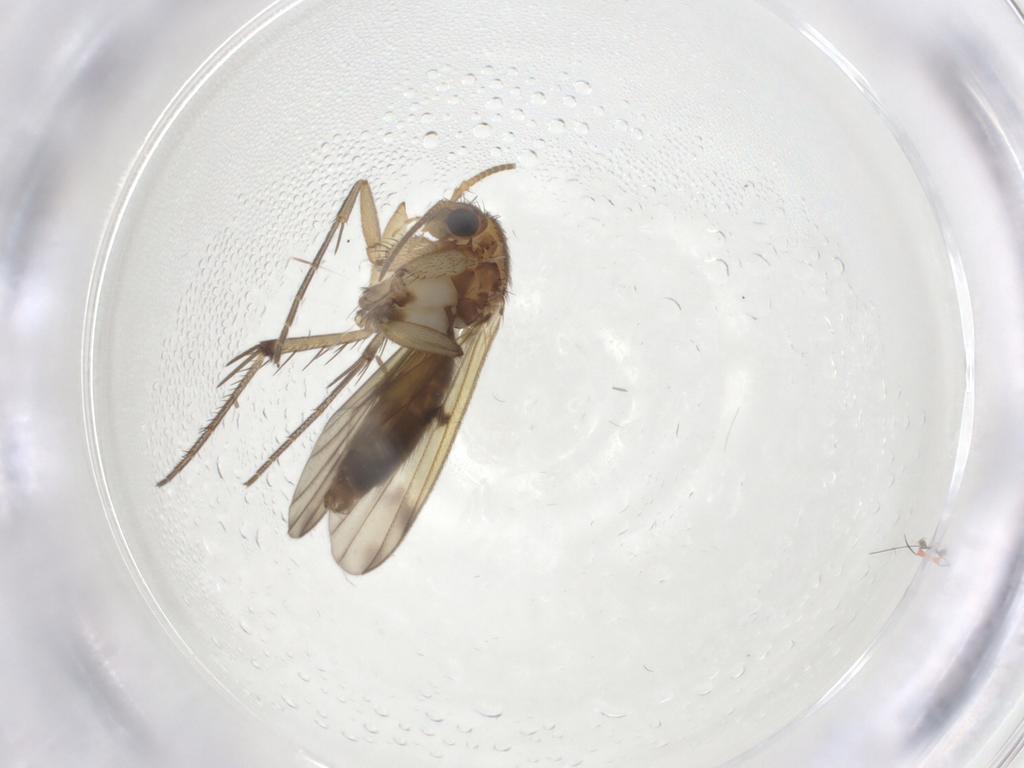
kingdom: Animalia
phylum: Arthropoda
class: Insecta
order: Diptera
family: Mycetophilidae
